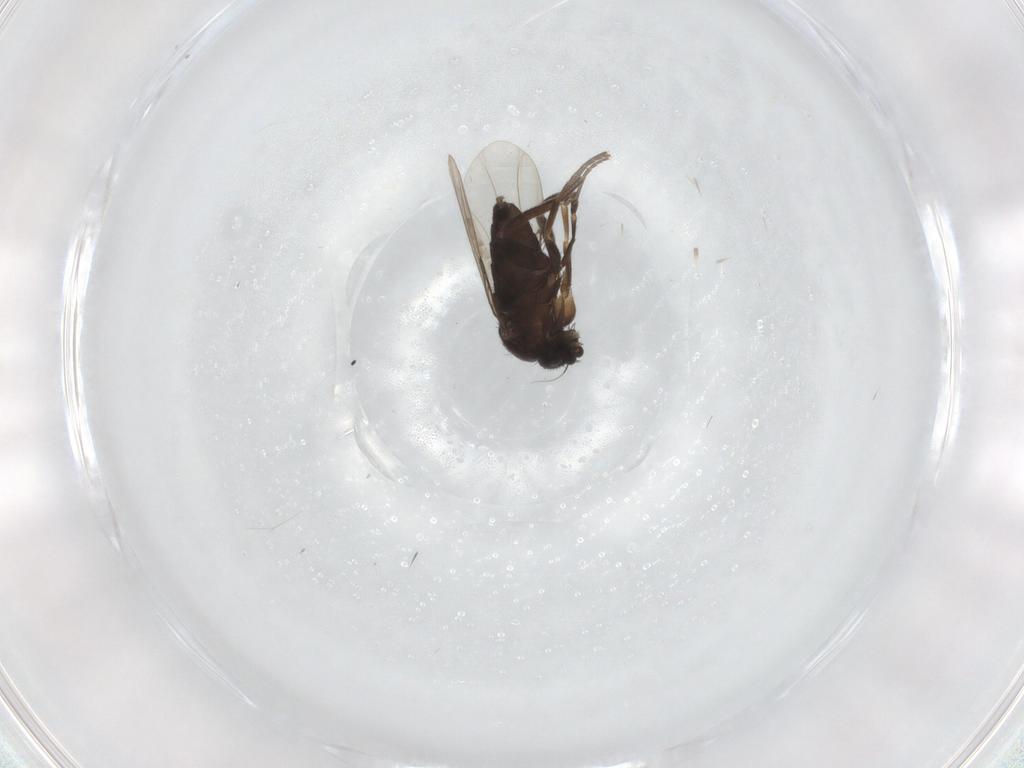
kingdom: Animalia
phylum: Arthropoda
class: Insecta
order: Diptera
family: Phoridae
